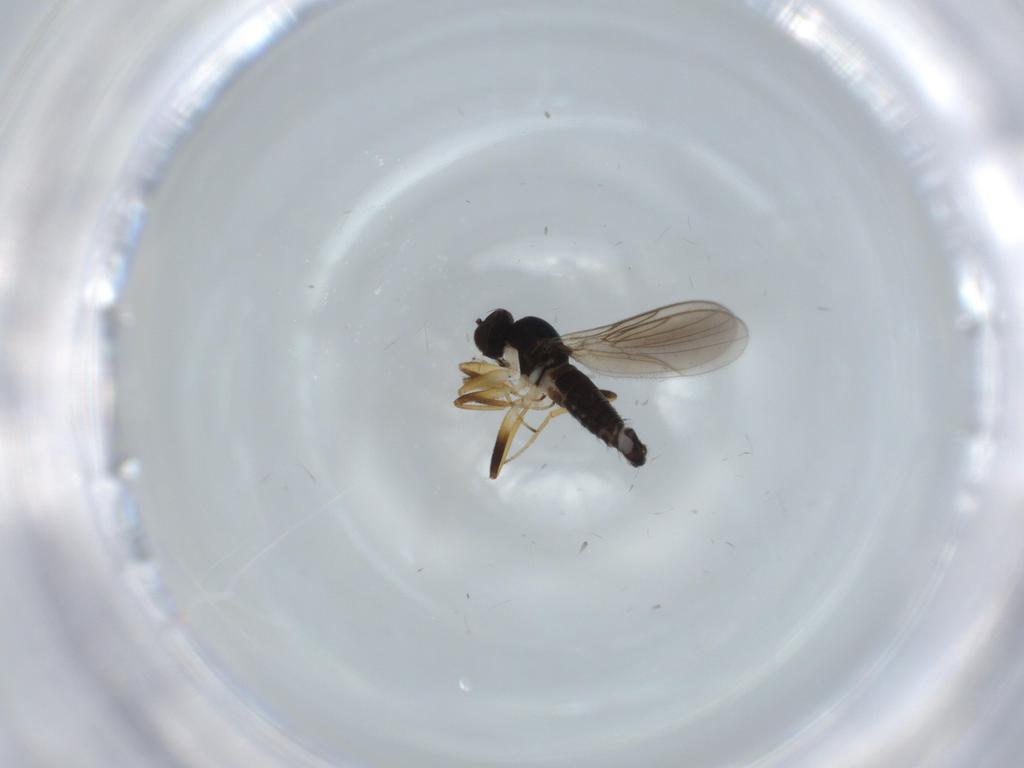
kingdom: Animalia
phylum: Arthropoda
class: Insecta
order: Diptera
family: Hybotidae
